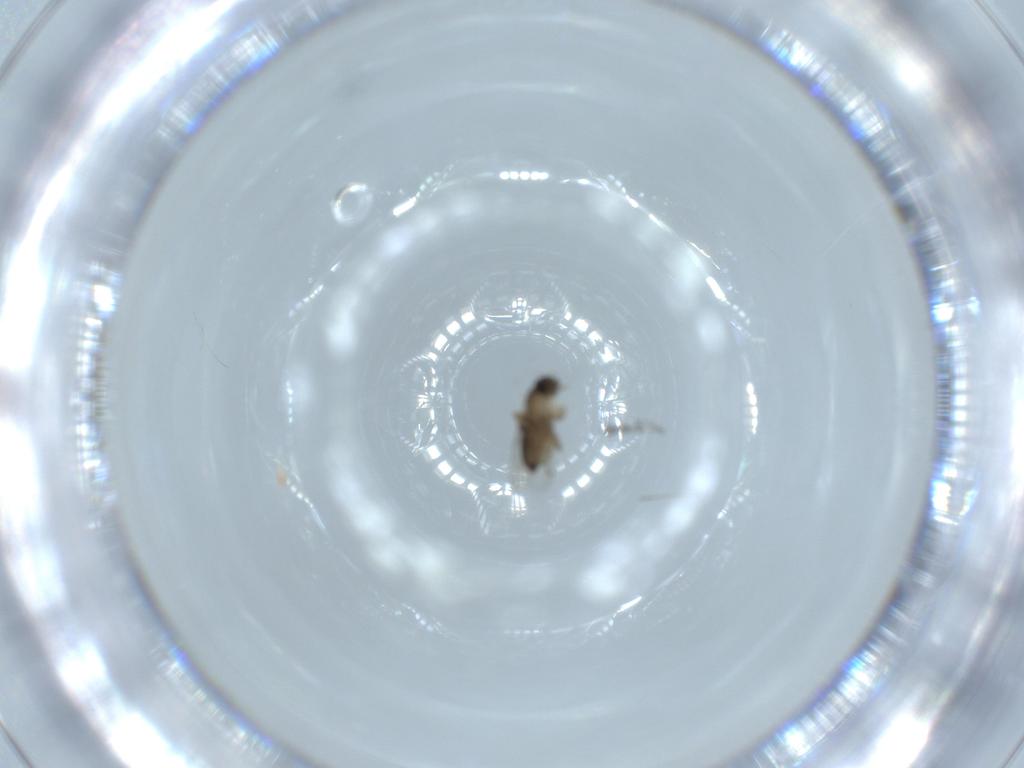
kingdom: Animalia
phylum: Arthropoda
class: Insecta
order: Diptera
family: Phoridae
